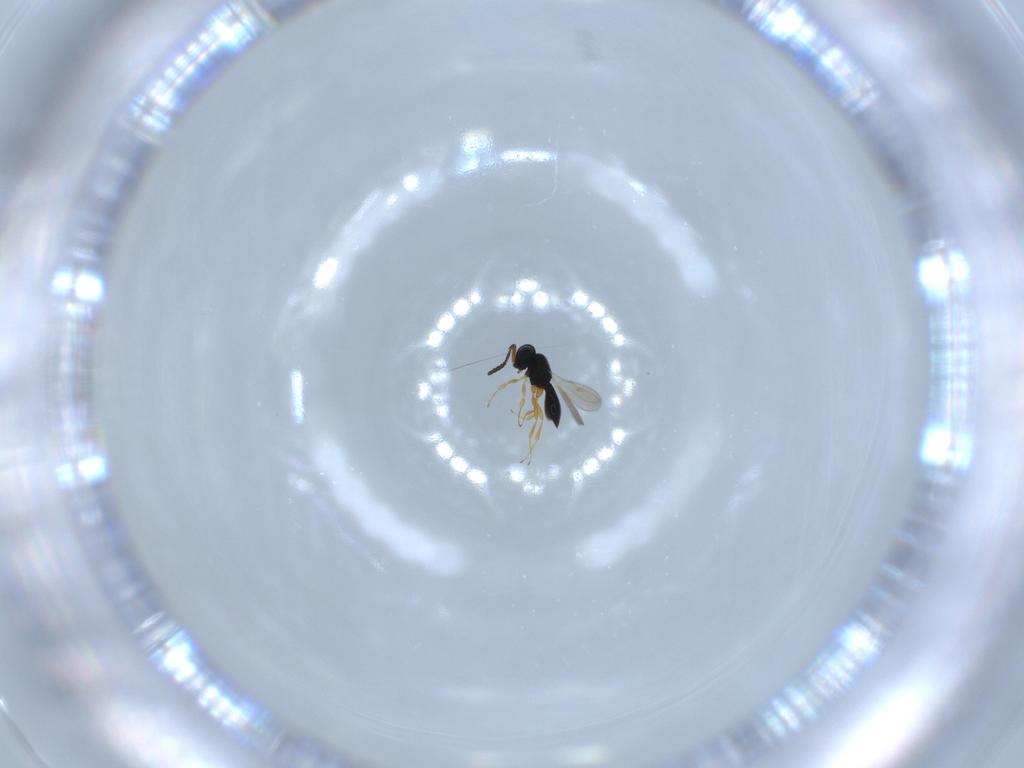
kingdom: Animalia
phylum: Arthropoda
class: Insecta
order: Hymenoptera
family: Scelionidae
